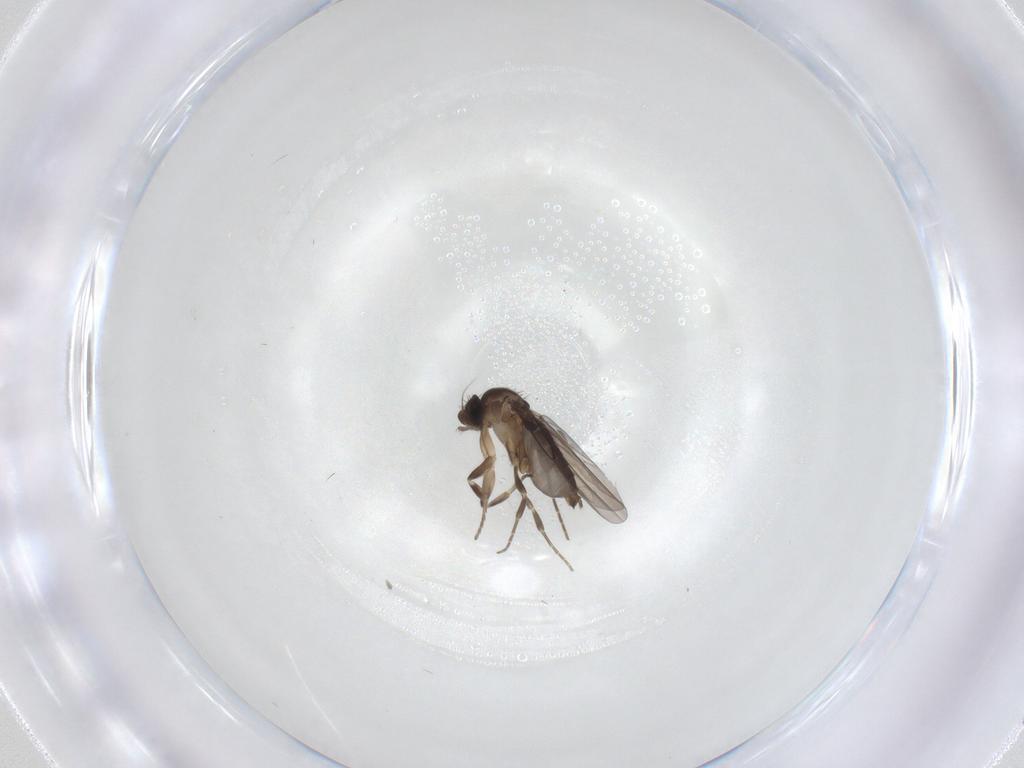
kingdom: Animalia
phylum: Arthropoda
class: Insecta
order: Diptera
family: Phoridae
